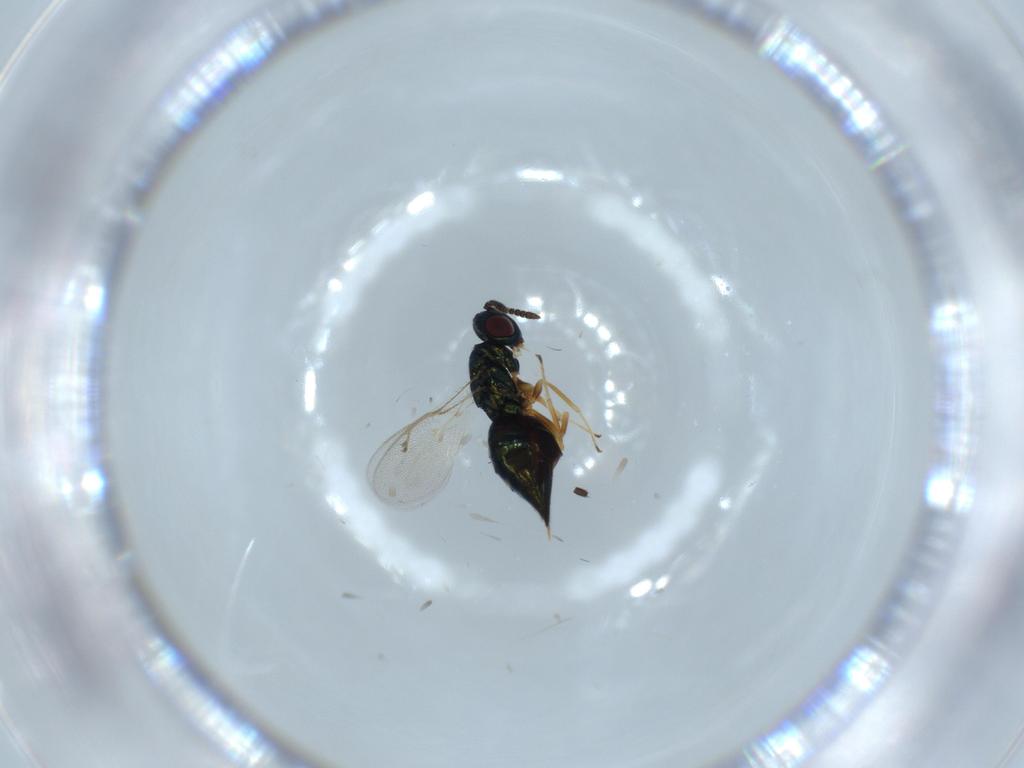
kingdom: Animalia
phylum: Arthropoda
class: Insecta
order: Hymenoptera
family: Pteromalidae
